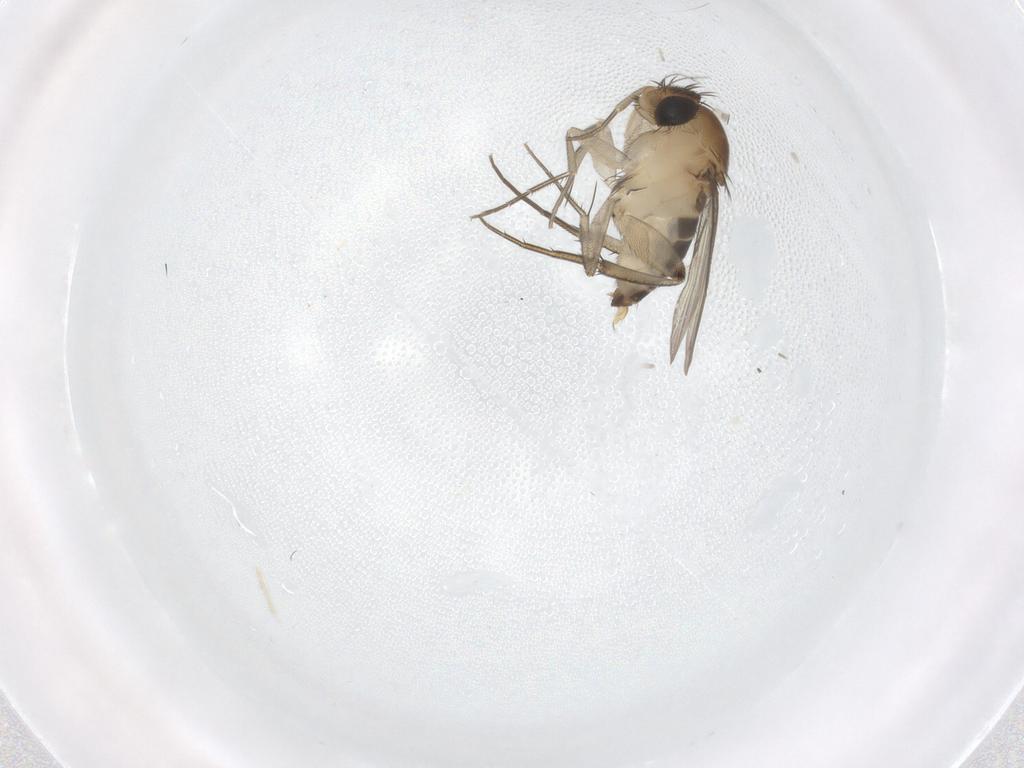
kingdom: Animalia
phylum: Arthropoda
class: Insecta
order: Diptera
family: Phoridae
